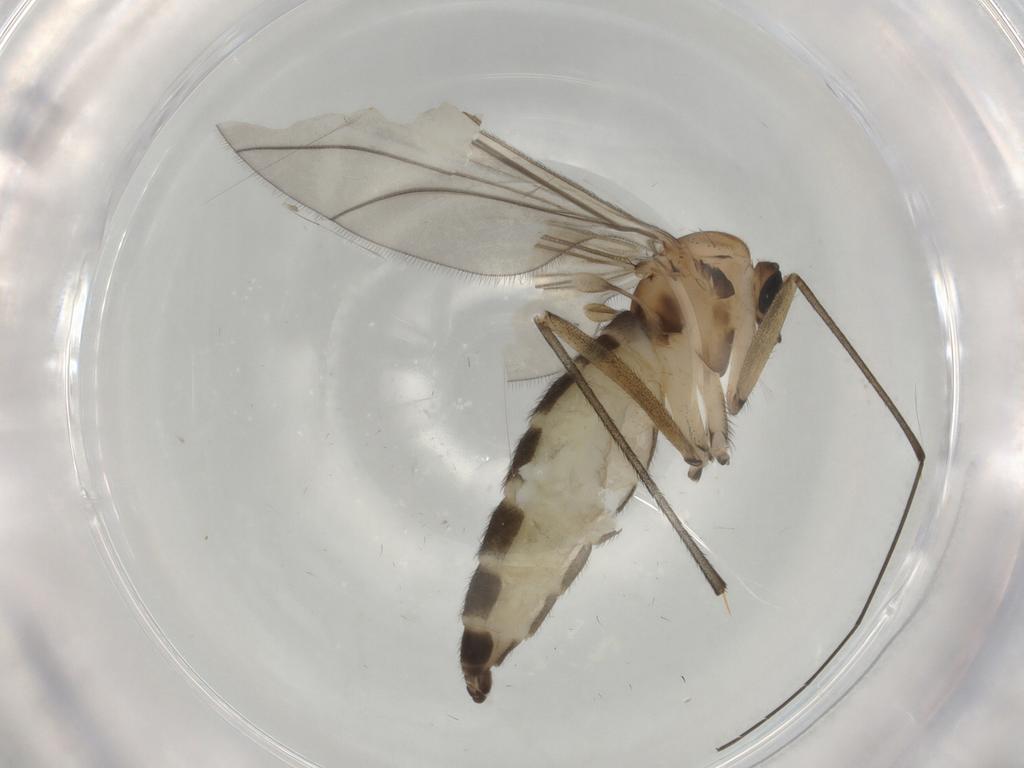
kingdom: Animalia
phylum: Arthropoda
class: Insecta
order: Diptera
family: Sciaridae
